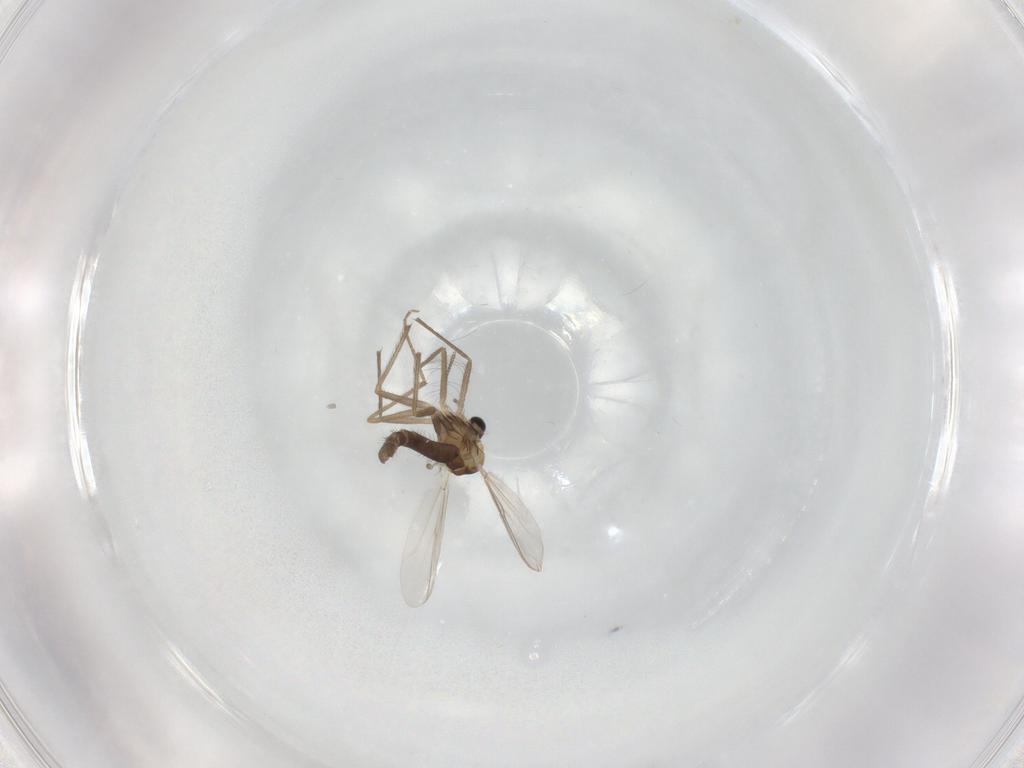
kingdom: Animalia
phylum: Arthropoda
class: Insecta
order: Diptera
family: Chironomidae
